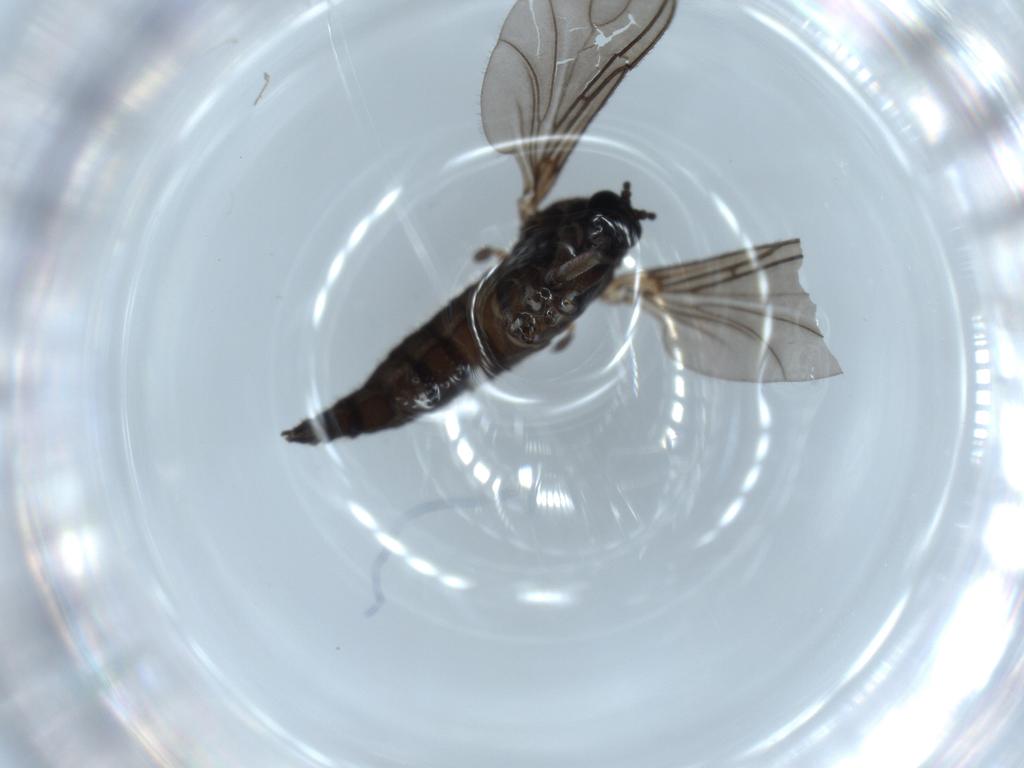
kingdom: Animalia
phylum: Arthropoda
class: Insecta
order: Diptera
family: Sciaridae
